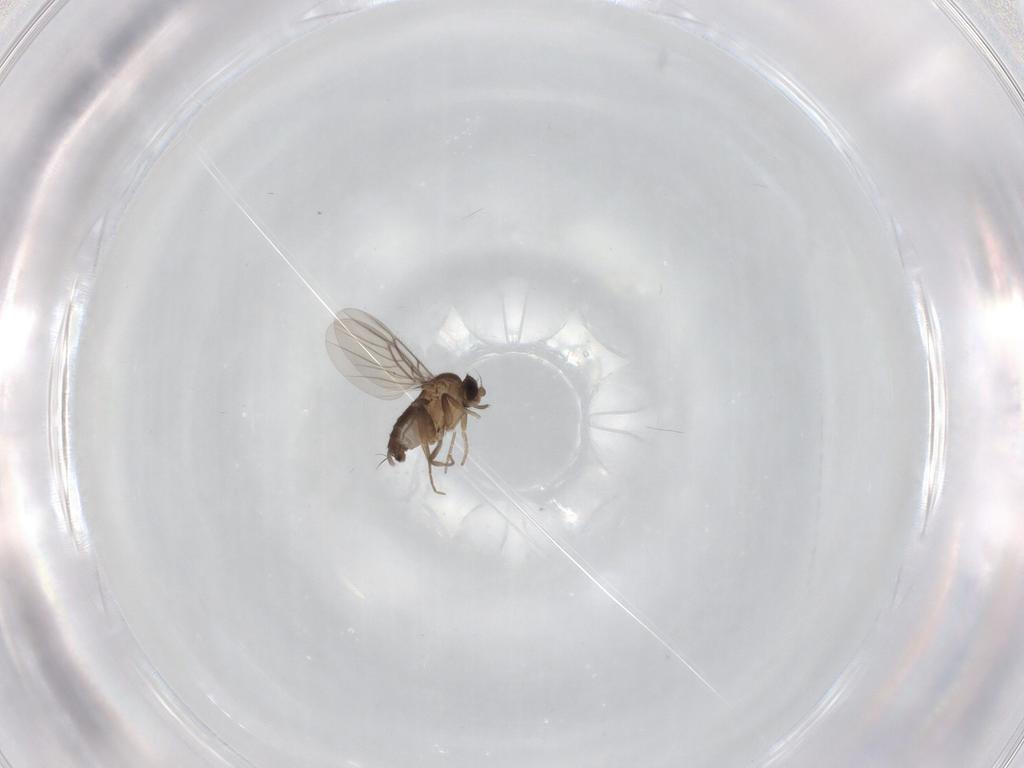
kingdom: Animalia
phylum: Arthropoda
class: Insecta
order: Diptera
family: Phoridae
